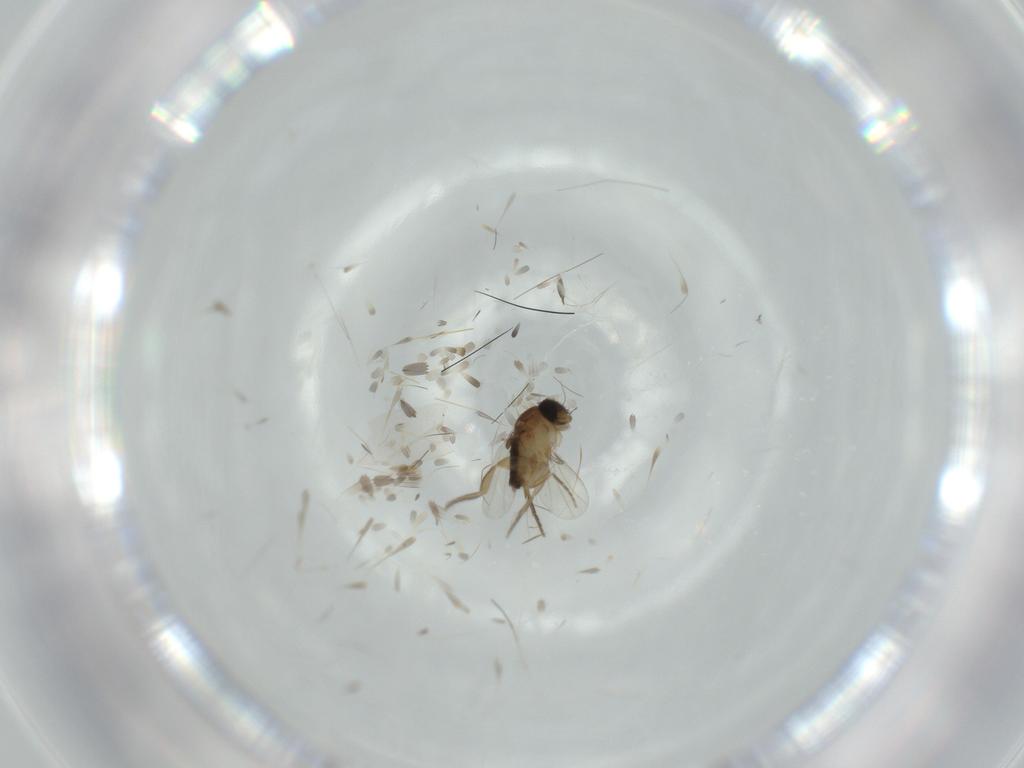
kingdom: Animalia
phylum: Arthropoda
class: Insecta
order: Diptera
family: Phoridae
